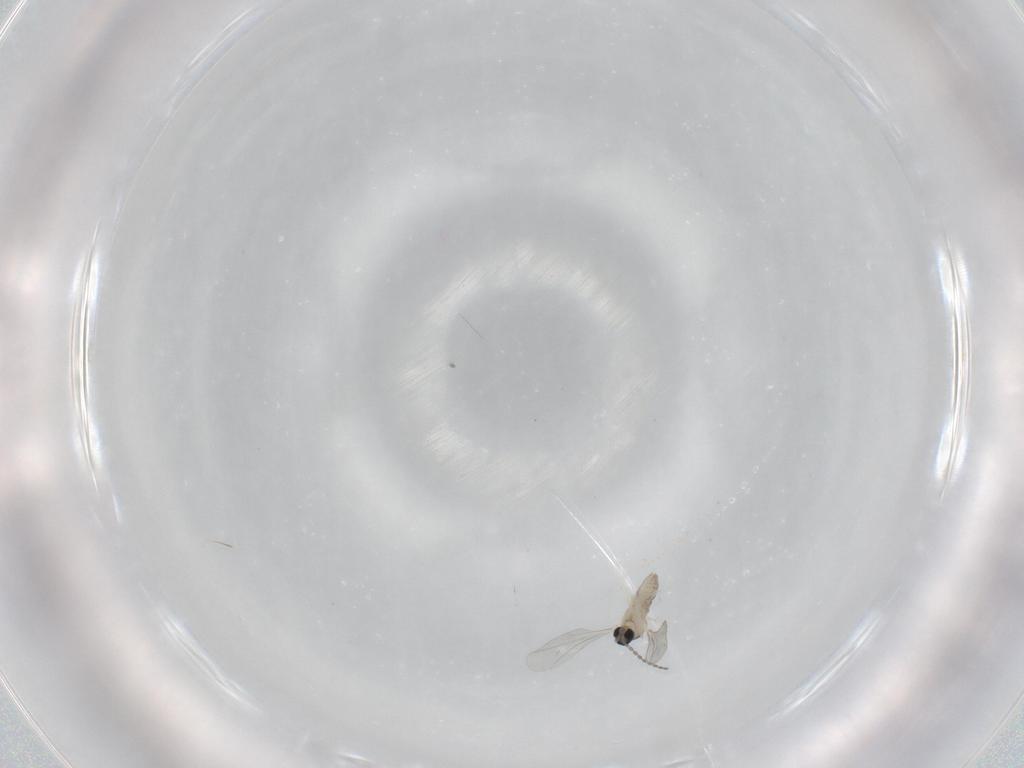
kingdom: Animalia
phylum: Arthropoda
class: Insecta
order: Diptera
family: Cecidomyiidae
